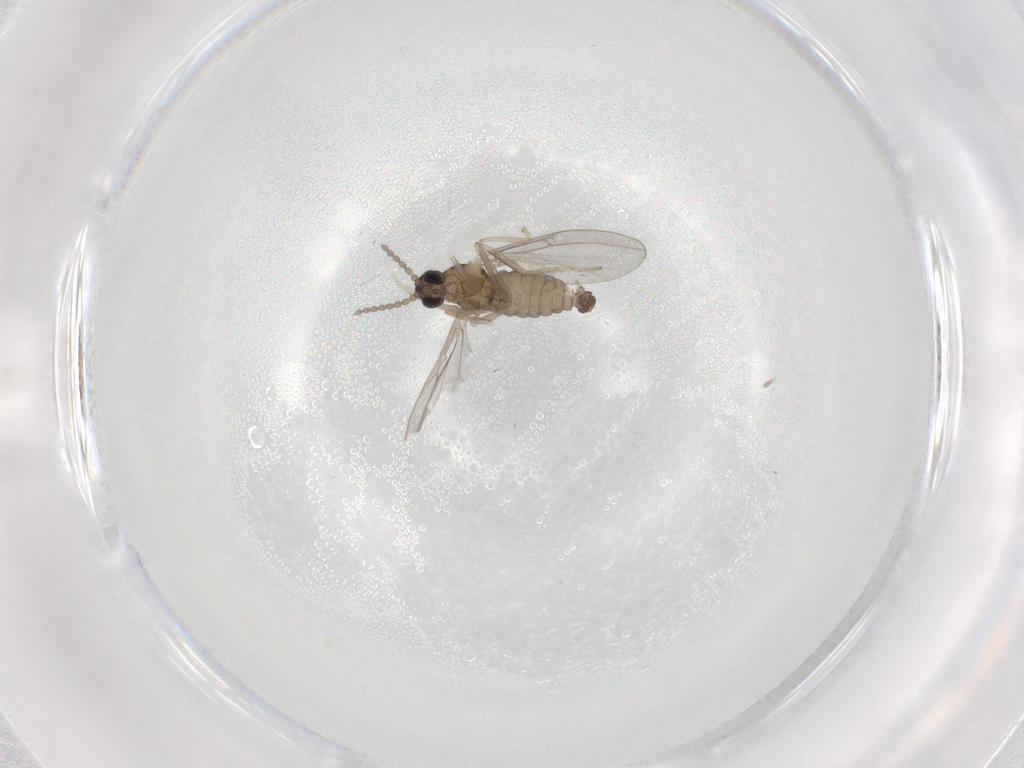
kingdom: Animalia
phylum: Arthropoda
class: Insecta
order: Diptera
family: Cecidomyiidae
